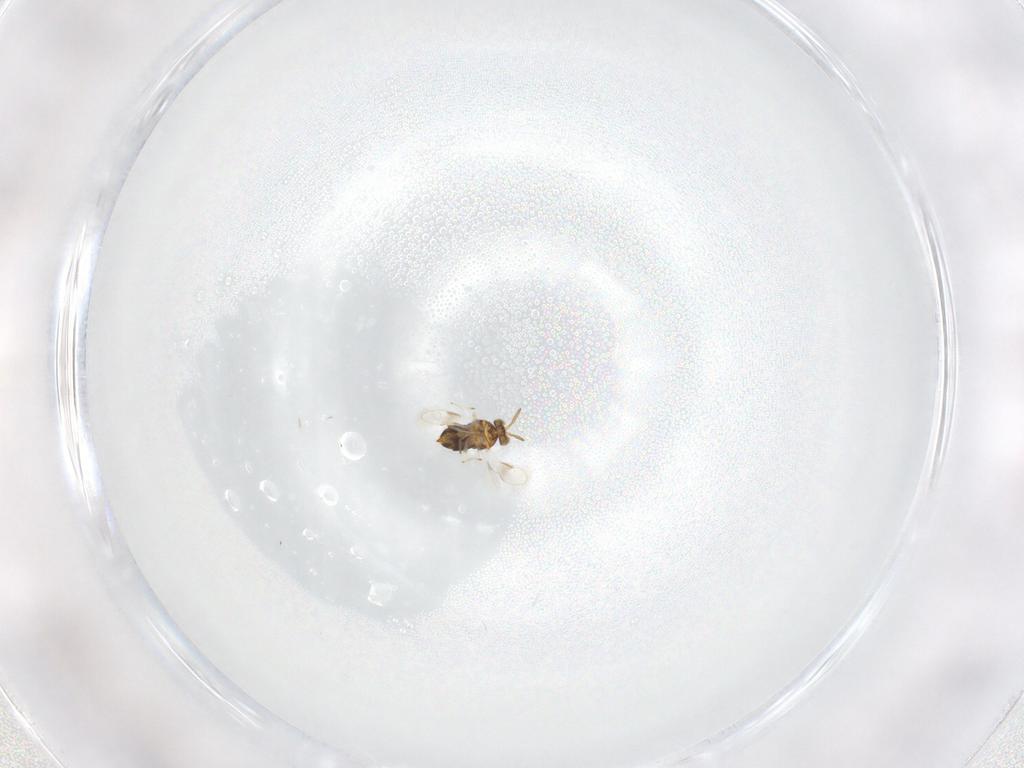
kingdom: Animalia
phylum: Arthropoda
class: Insecta
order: Hymenoptera
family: Aphelinidae
